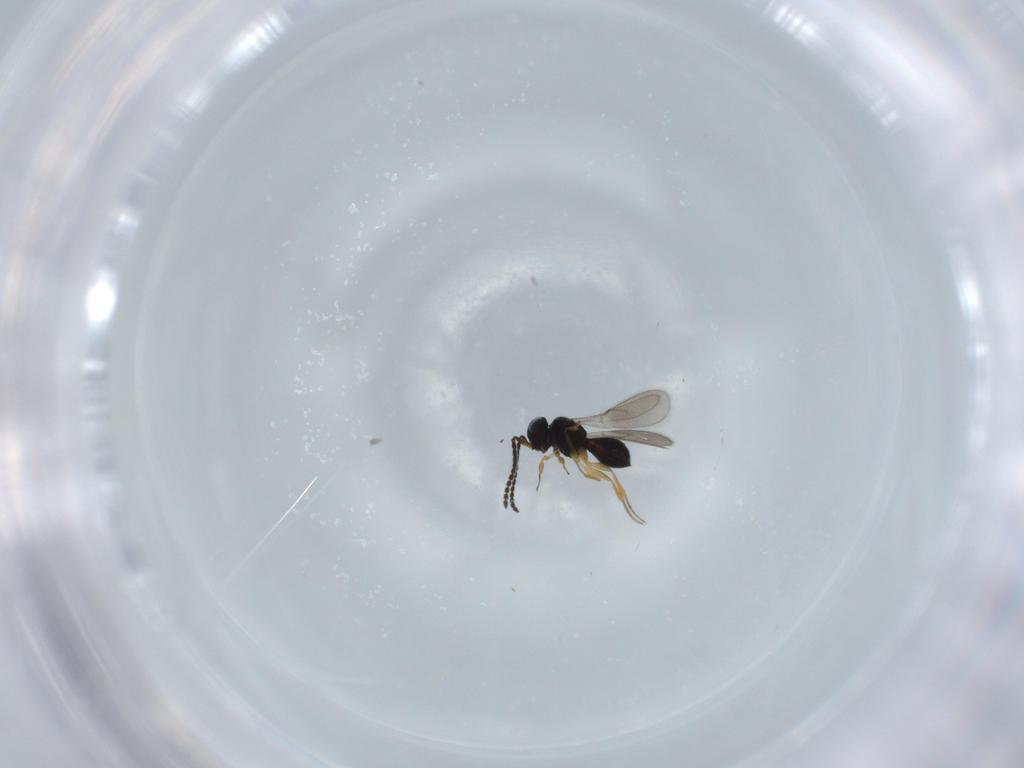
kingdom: Animalia
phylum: Arthropoda
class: Insecta
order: Hymenoptera
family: Scelionidae
